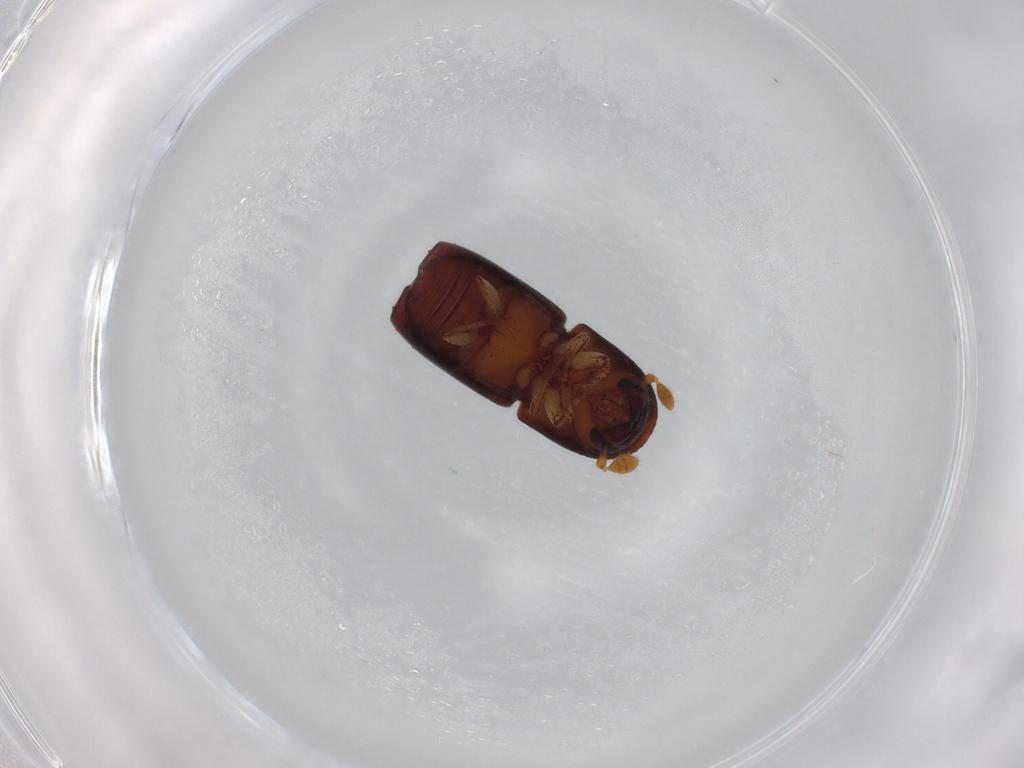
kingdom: Animalia
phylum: Arthropoda
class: Insecta
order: Coleoptera
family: Curculionidae
